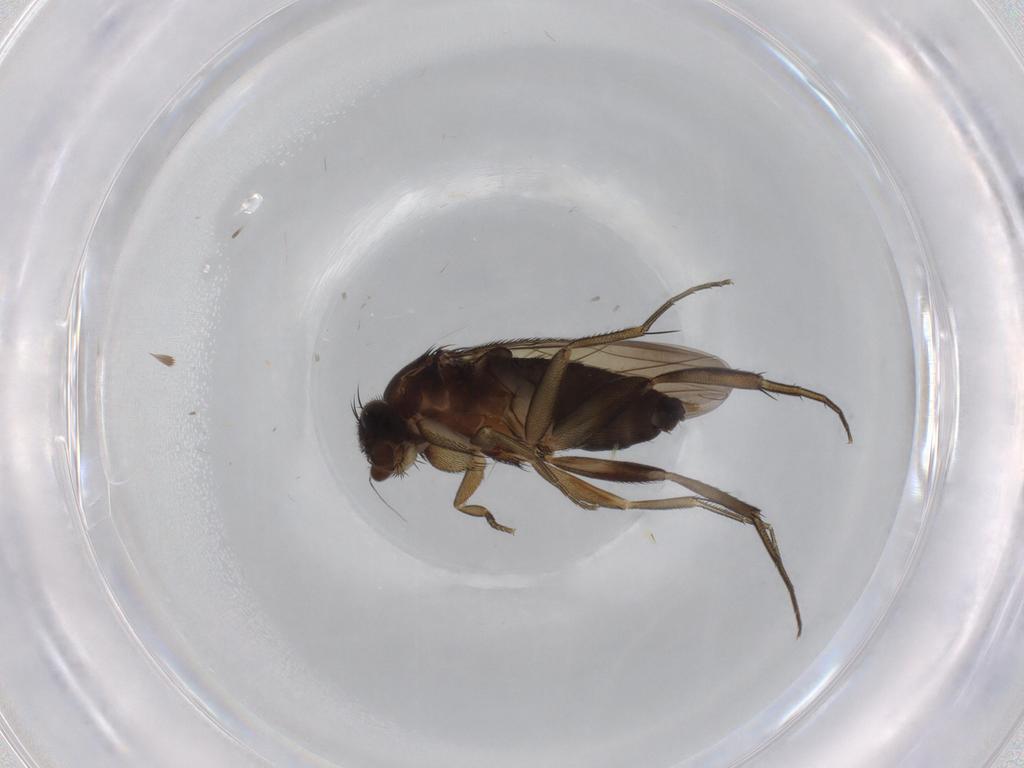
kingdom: Animalia
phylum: Arthropoda
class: Insecta
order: Diptera
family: Phoridae
